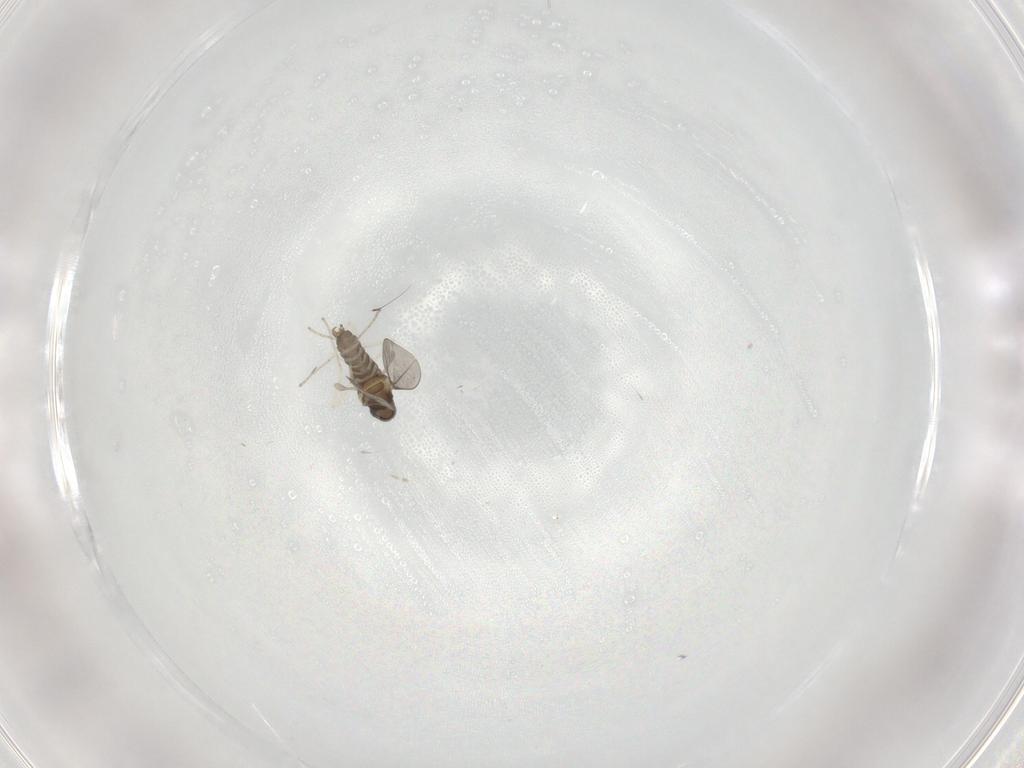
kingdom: Animalia
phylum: Arthropoda
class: Insecta
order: Diptera
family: Cecidomyiidae
